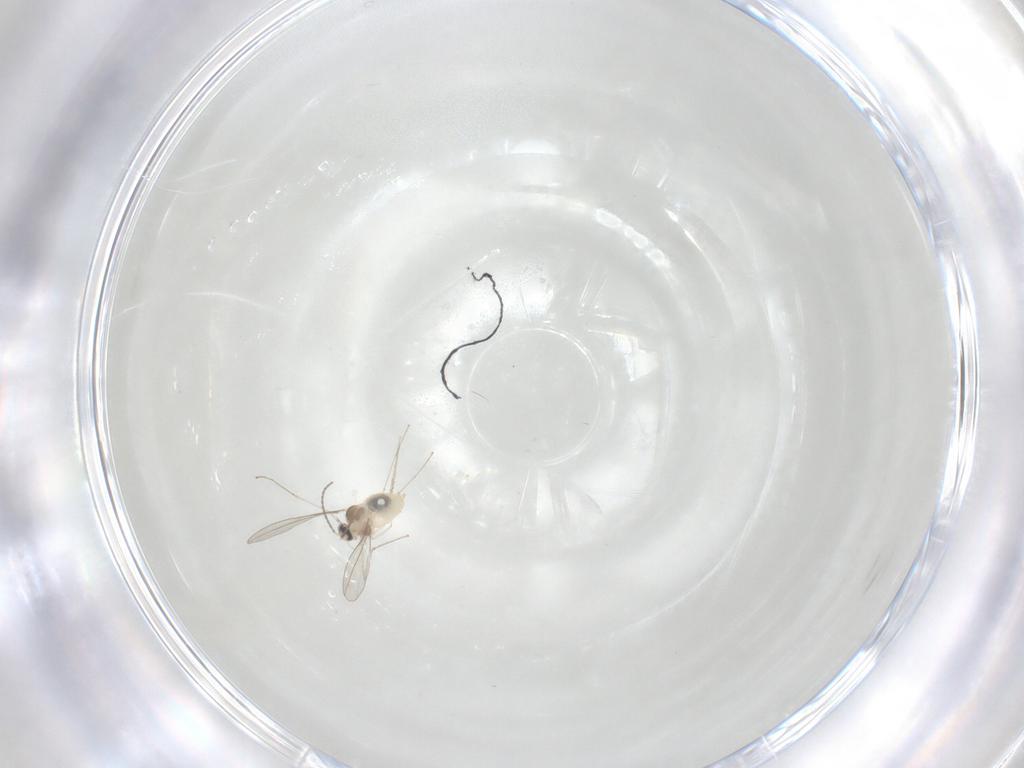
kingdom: Animalia
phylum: Arthropoda
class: Insecta
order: Diptera
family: Cecidomyiidae
